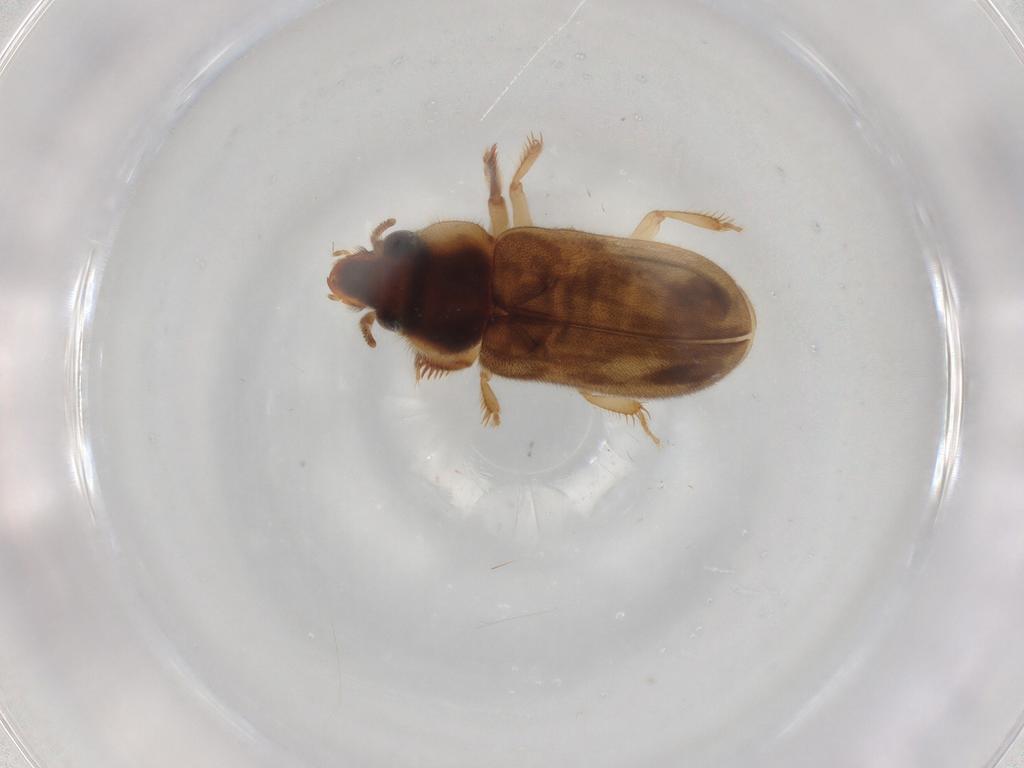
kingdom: Animalia
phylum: Arthropoda
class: Insecta
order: Coleoptera
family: Heteroceridae
